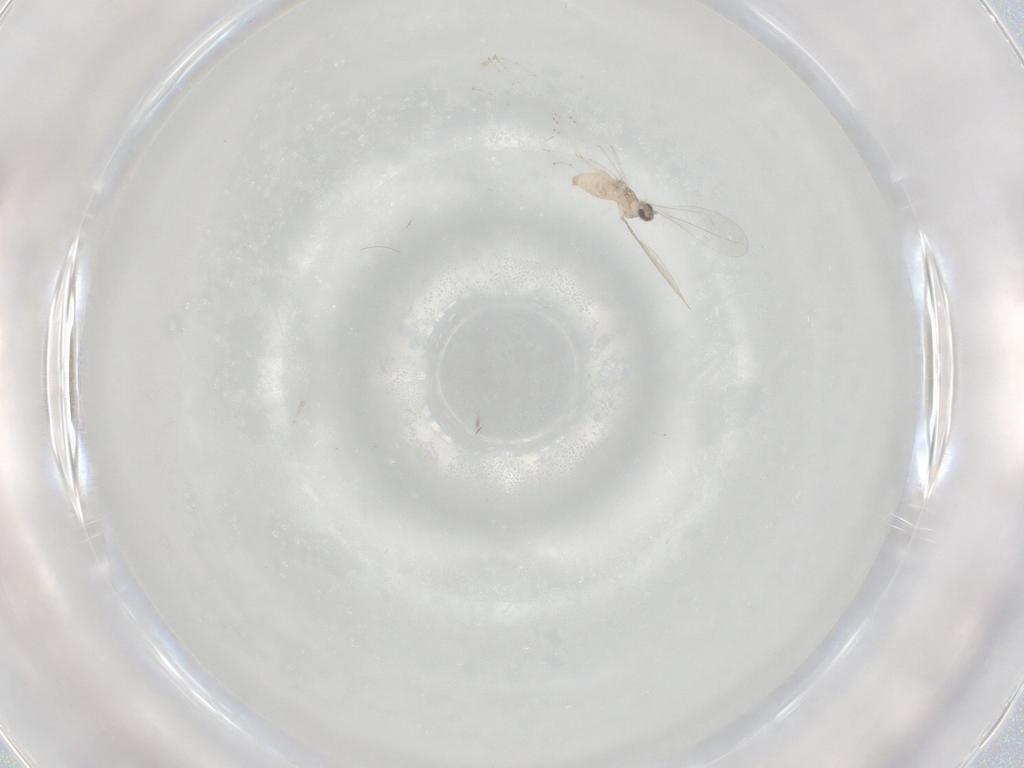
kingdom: Animalia
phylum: Arthropoda
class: Insecta
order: Diptera
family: Cecidomyiidae
